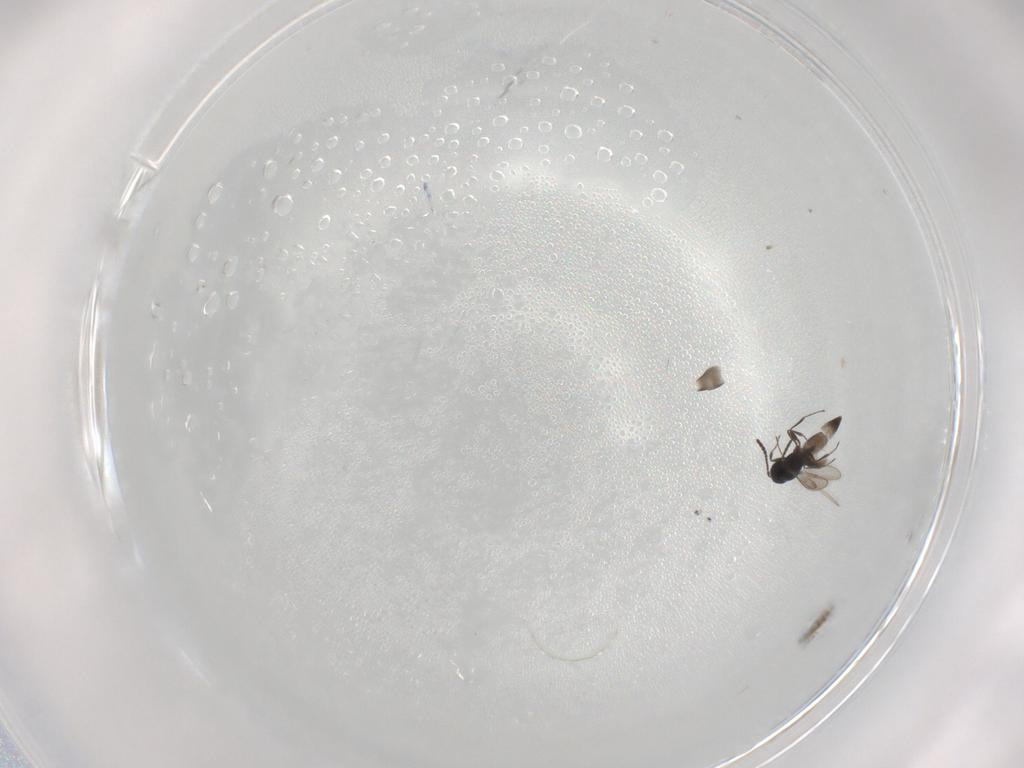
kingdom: Animalia
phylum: Arthropoda
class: Insecta
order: Hymenoptera
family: Scelionidae
